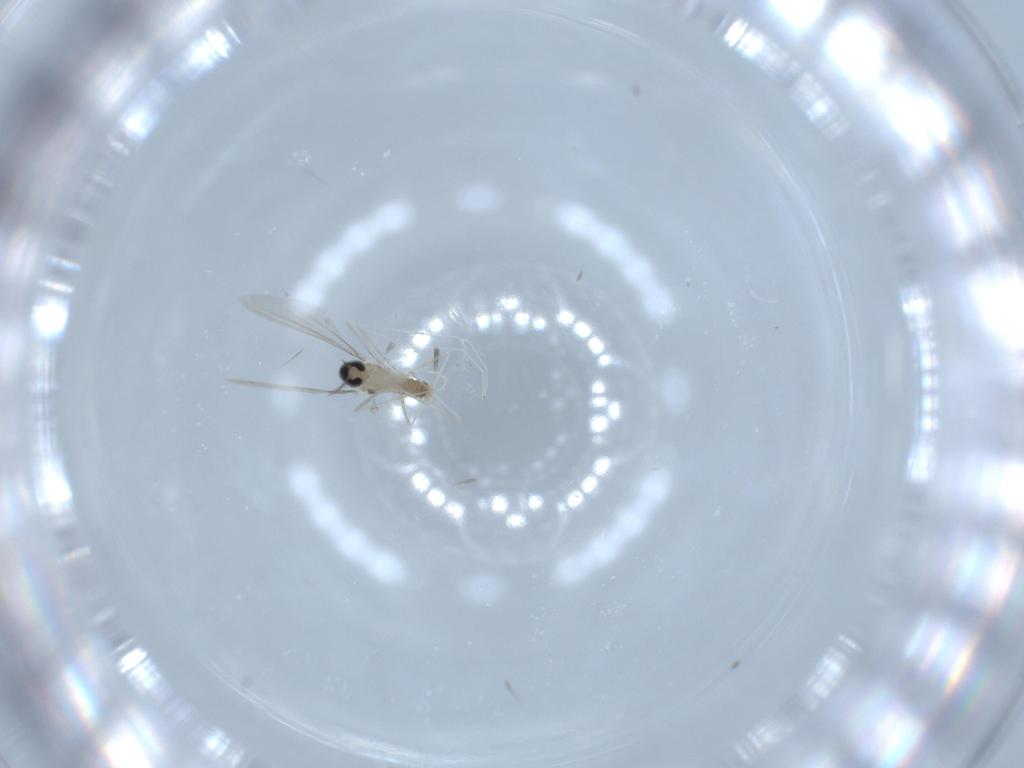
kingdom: Animalia
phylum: Arthropoda
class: Insecta
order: Diptera
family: Cecidomyiidae
